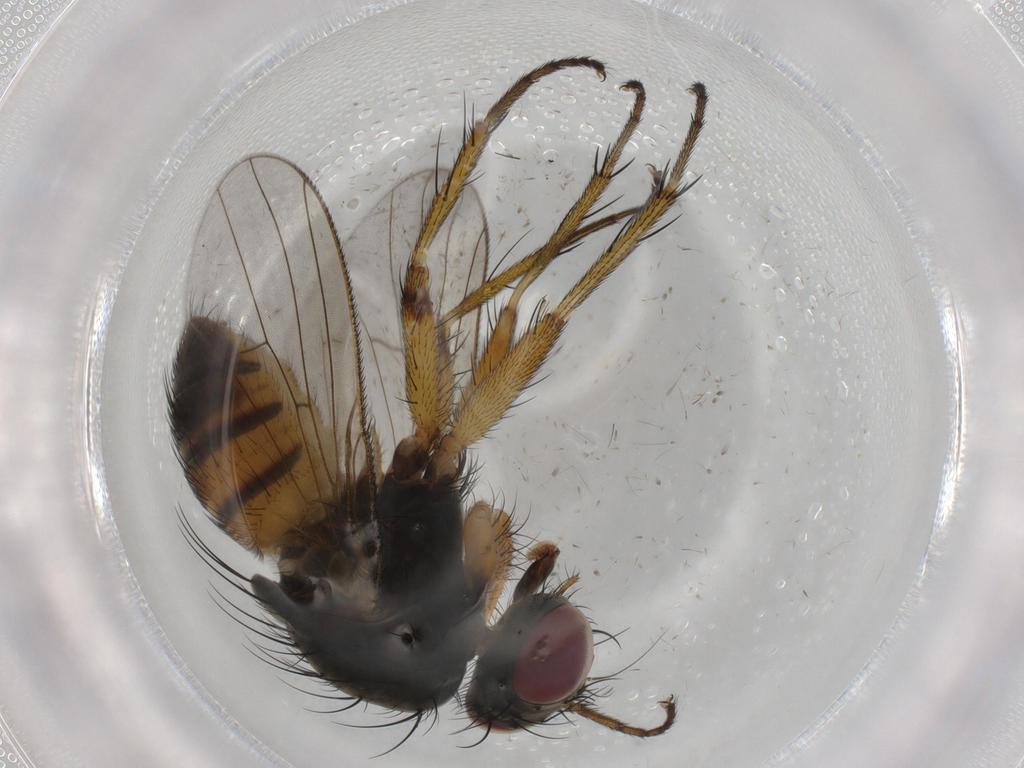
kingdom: Animalia
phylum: Arthropoda
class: Insecta
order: Diptera
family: Muscidae
